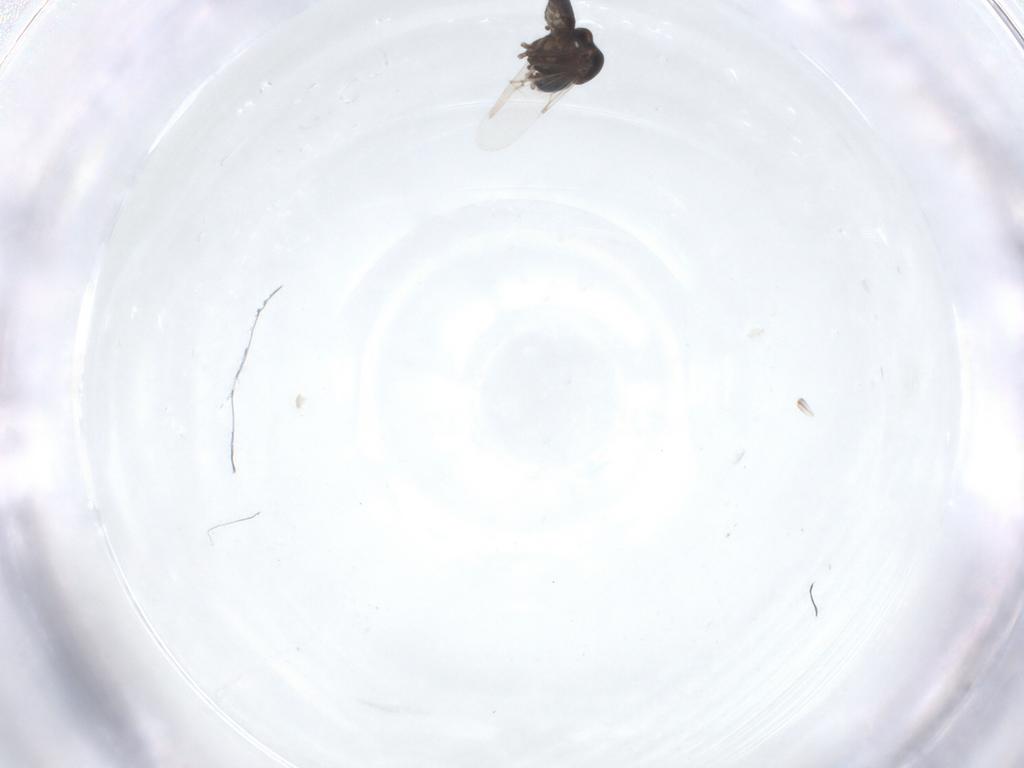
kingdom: Animalia
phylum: Arthropoda
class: Insecta
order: Diptera
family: Ceratopogonidae
